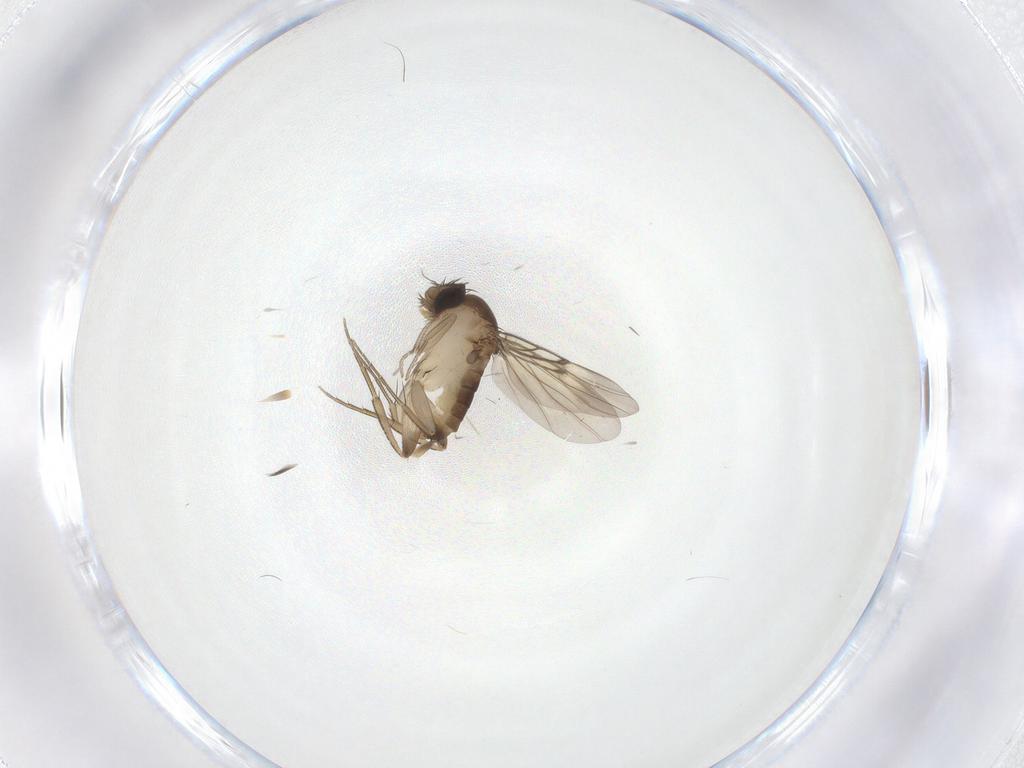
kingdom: Animalia
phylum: Arthropoda
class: Insecta
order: Diptera
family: Phoridae
